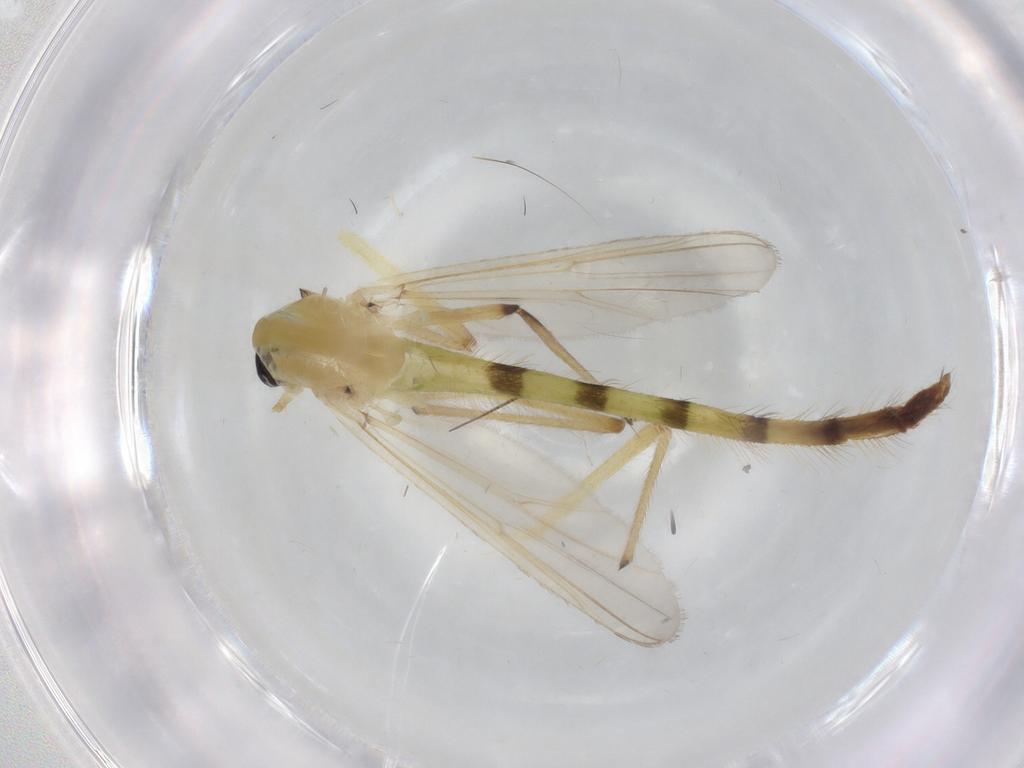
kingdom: Animalia
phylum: Arthropoda
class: Insecta
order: Diptera
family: Chironomidae
